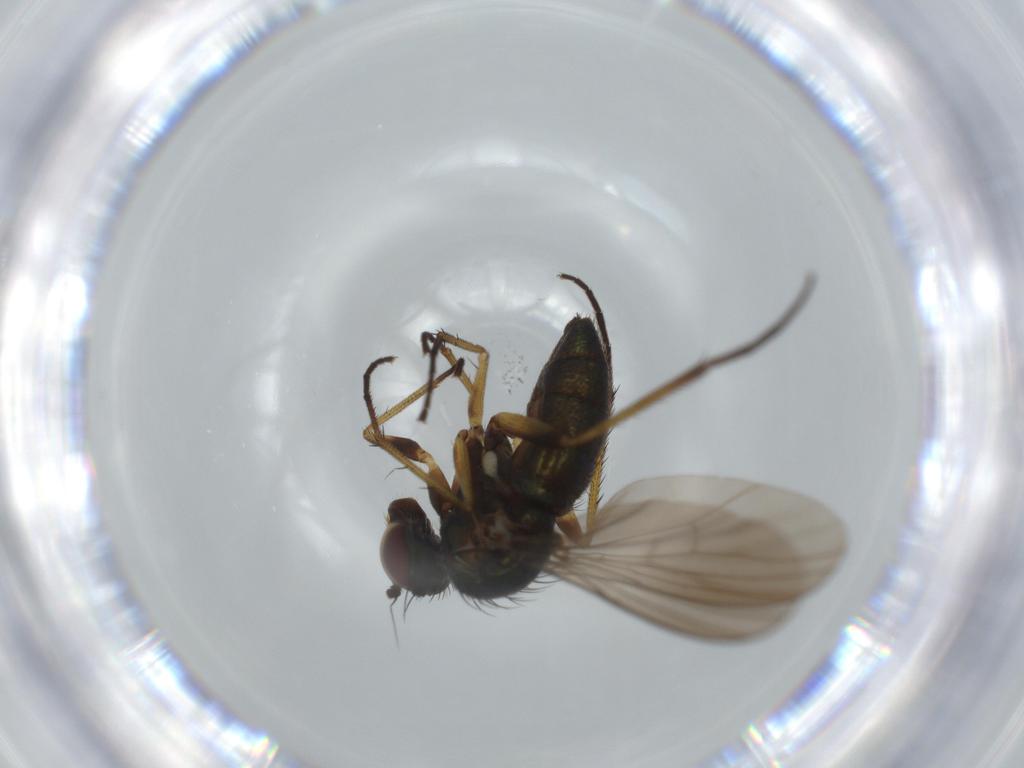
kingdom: Animalia
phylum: Arthropoda
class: Insecta
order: Diptera
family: Dolichopodidae
